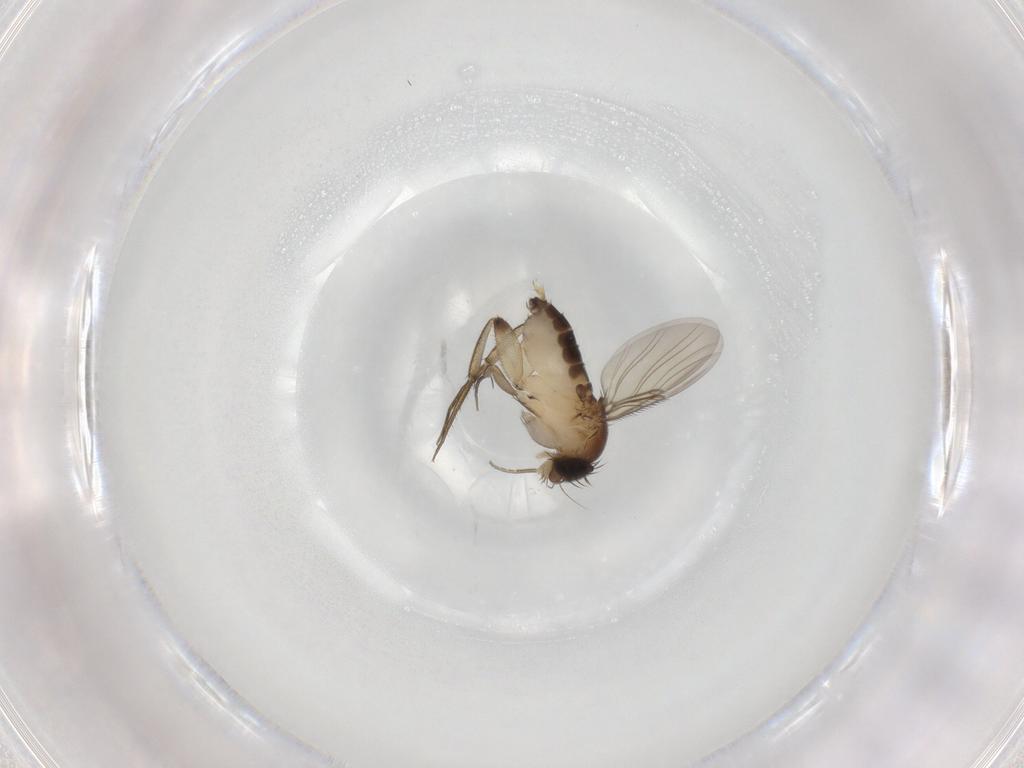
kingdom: Animalia
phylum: Arthropoda
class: Insecta
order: Diptera
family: Phoridae
